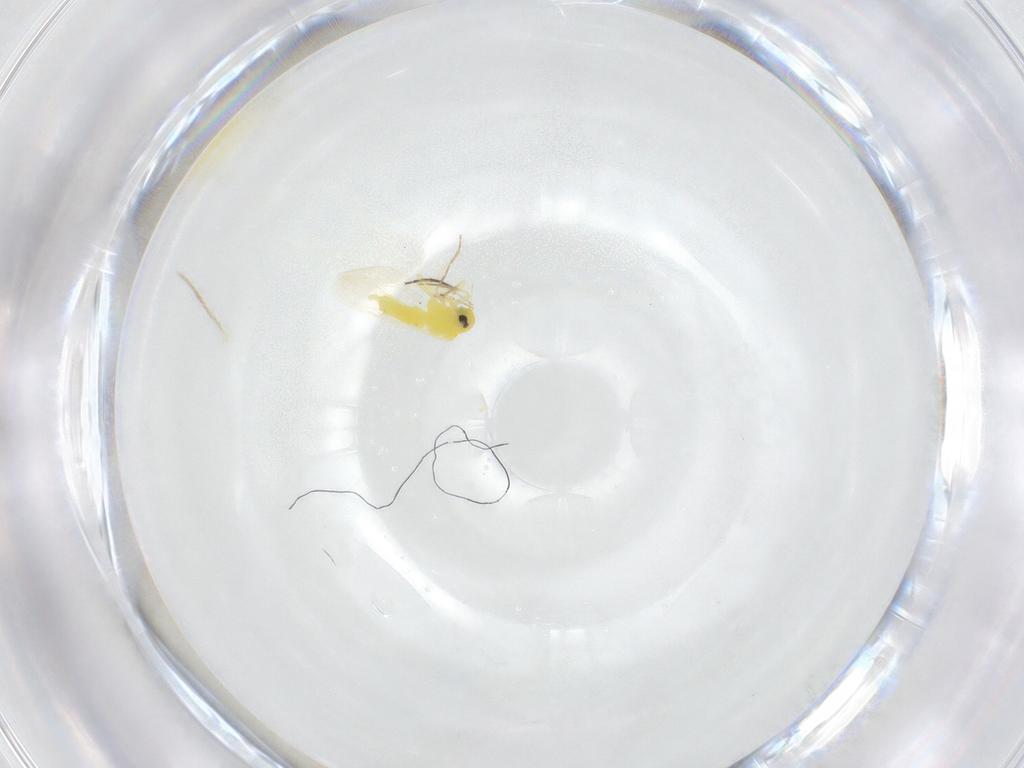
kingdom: Animalia
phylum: Arthropoda
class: Insecta
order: Hemiptera
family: Aleyrodidae
